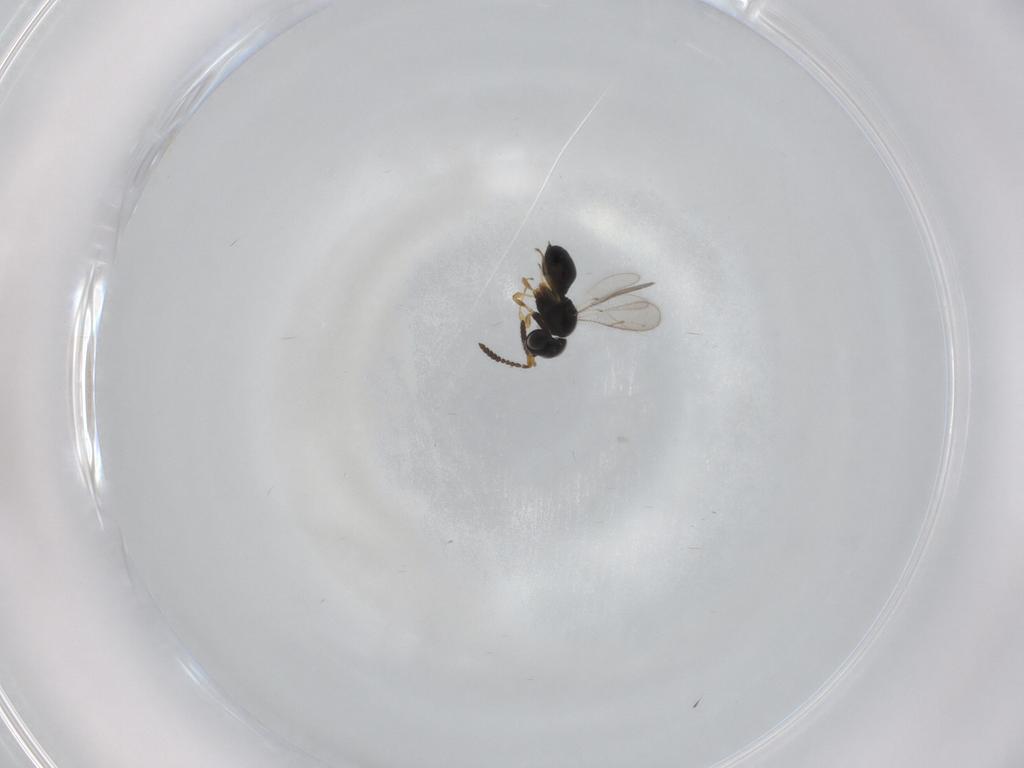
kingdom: Animalia
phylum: Arthropoda
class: Insecta
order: Hymenoptera
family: Scelionidae
